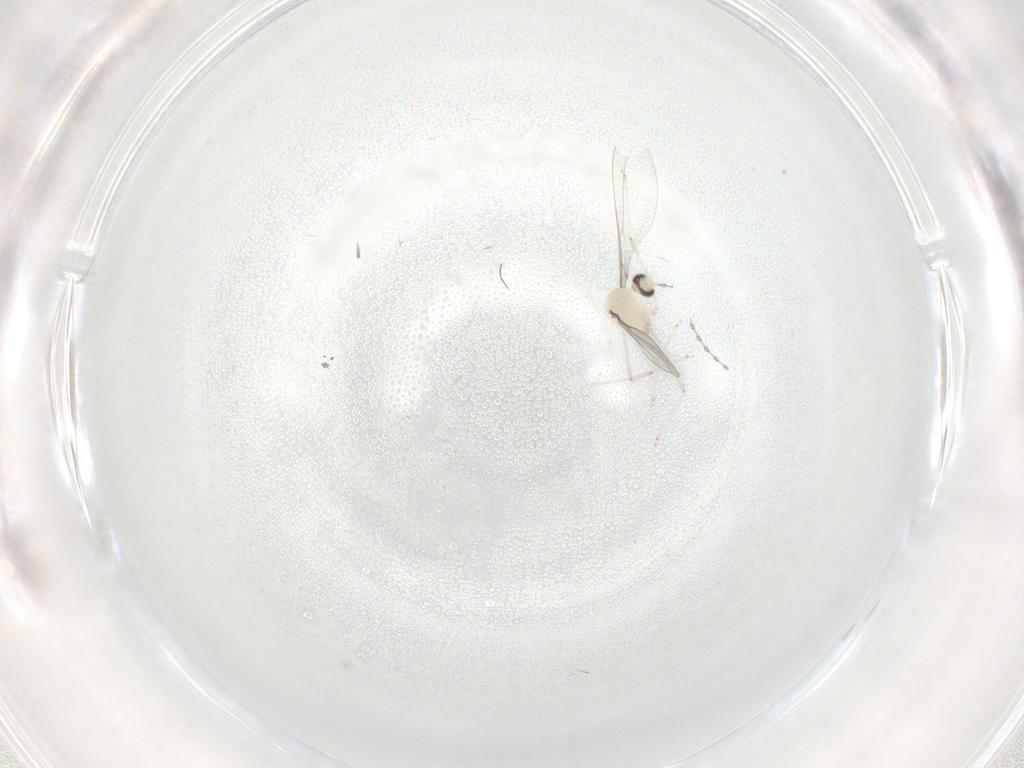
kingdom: Animalia
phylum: Arthropoda
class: Insecta
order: Diptera
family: Cecidomyiidae
